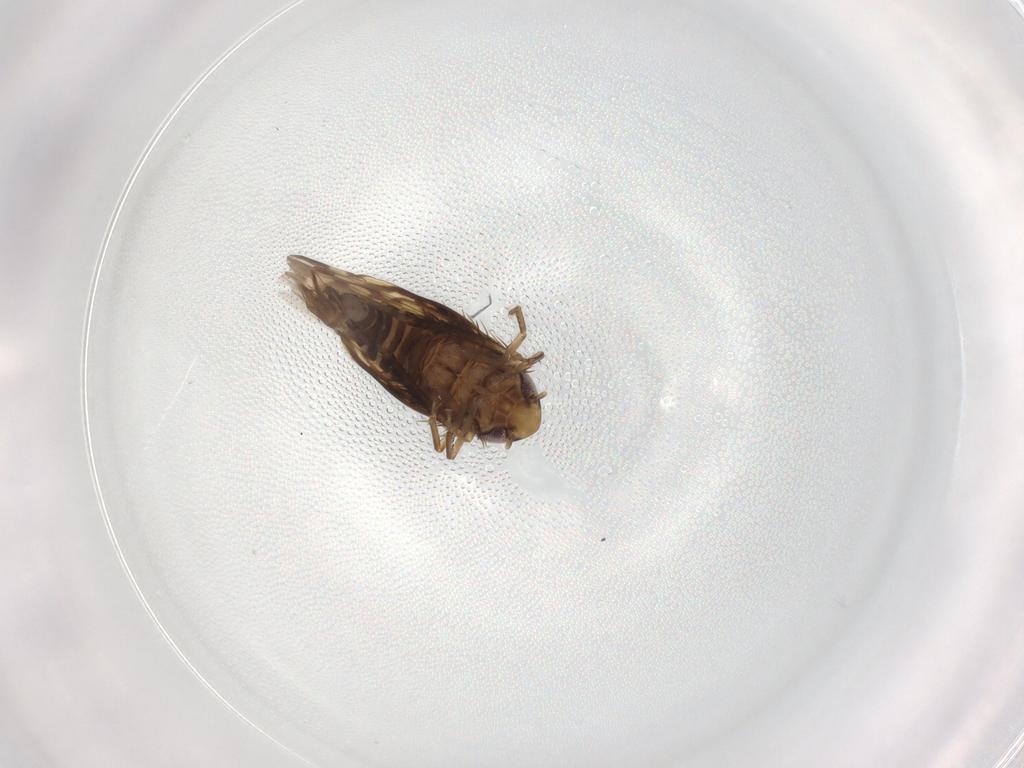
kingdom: Animalia
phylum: Arthropoda
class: Insecta
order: Hemiptera
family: Cicadellidae
